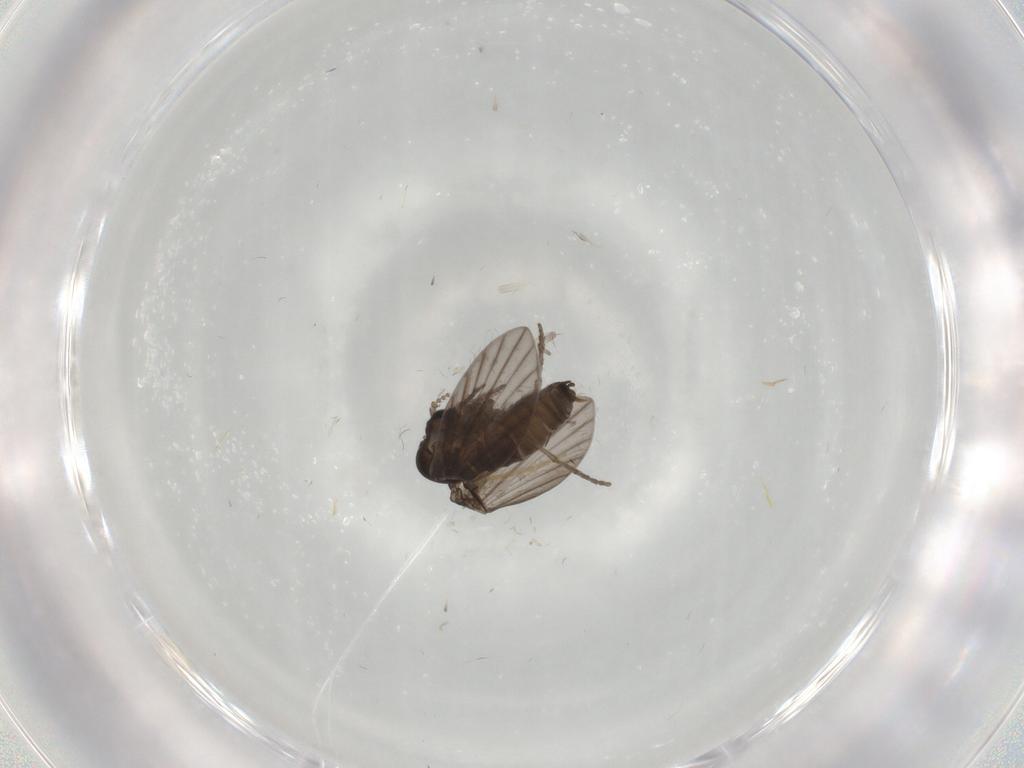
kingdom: Animalia
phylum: Arthropoda
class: Insecta
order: Diptera
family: Psychodidae
